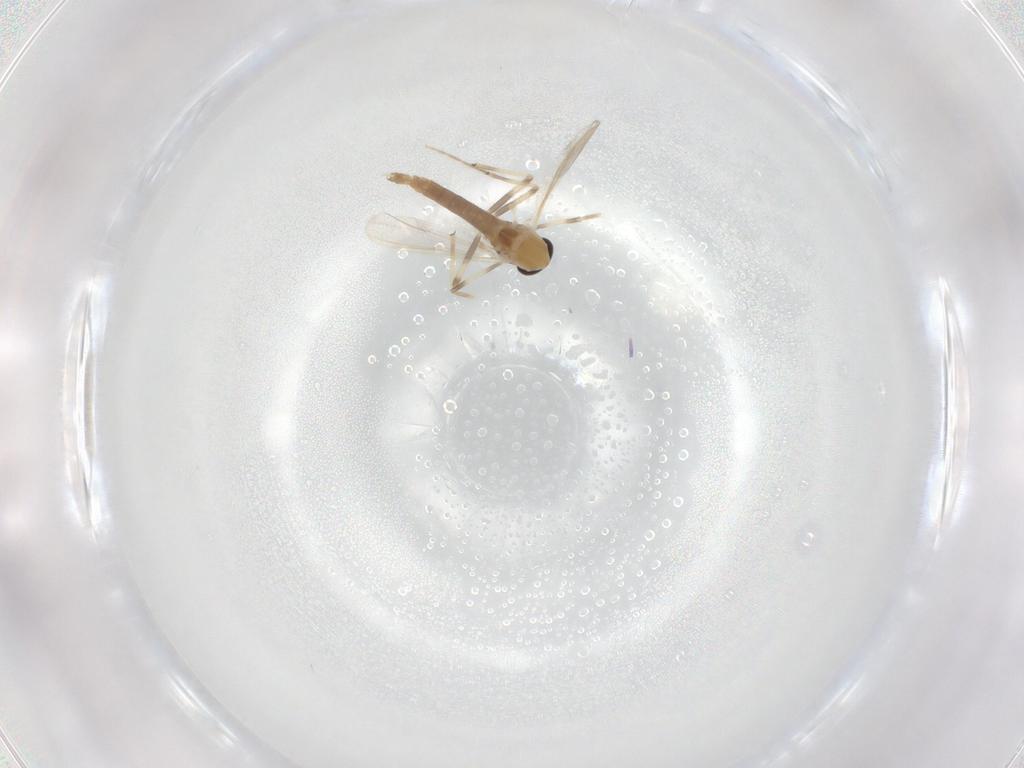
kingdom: Animalia
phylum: Arthropoda
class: Insecta
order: Diptera
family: Chironomidae
